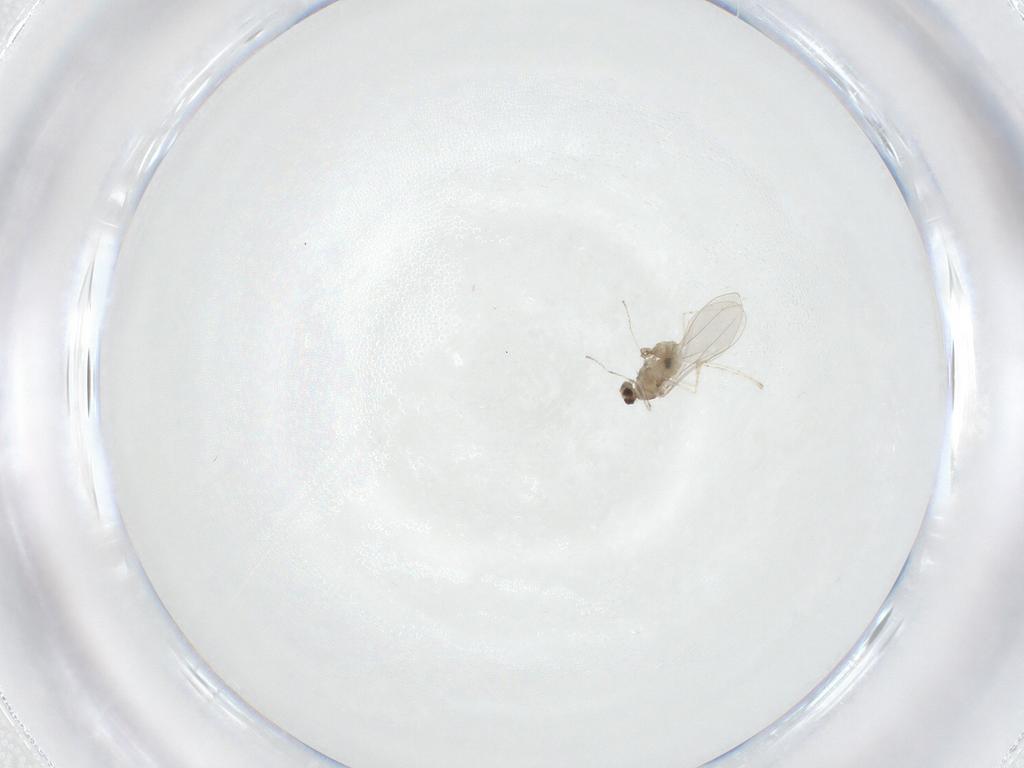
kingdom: Animalia
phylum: Arthropoda
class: Insecta
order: Diptera
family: Cecidomyiidae
